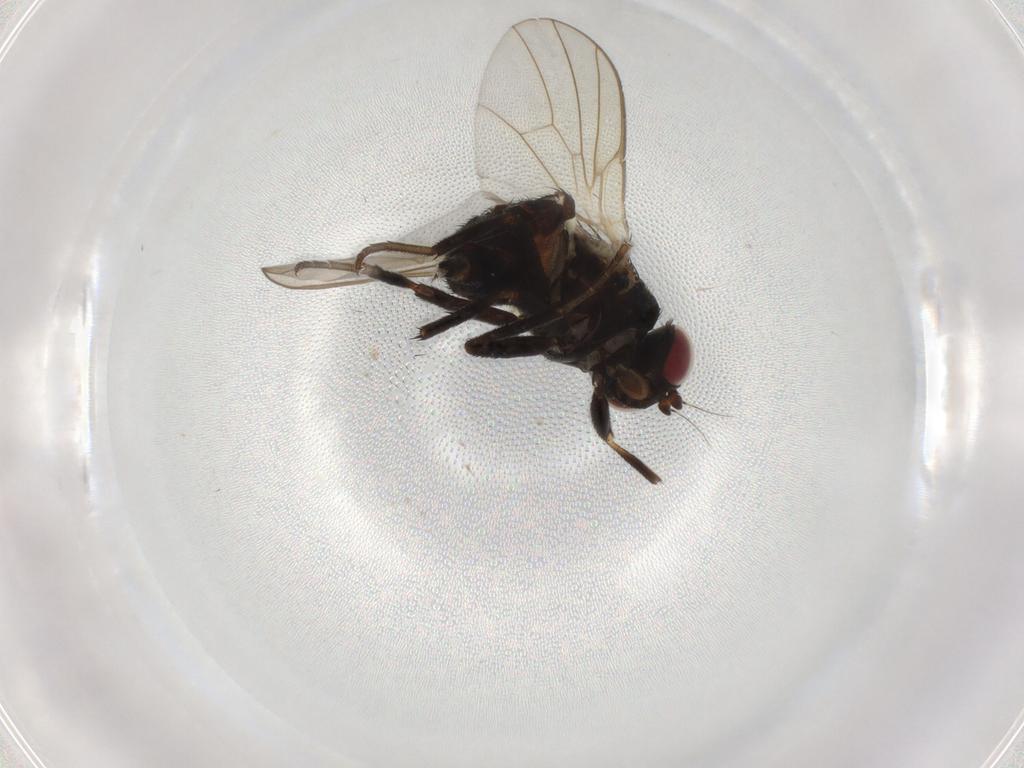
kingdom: Animalia
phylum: Arthropoda
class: Insecta
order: Diptera
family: Agromyzidae
